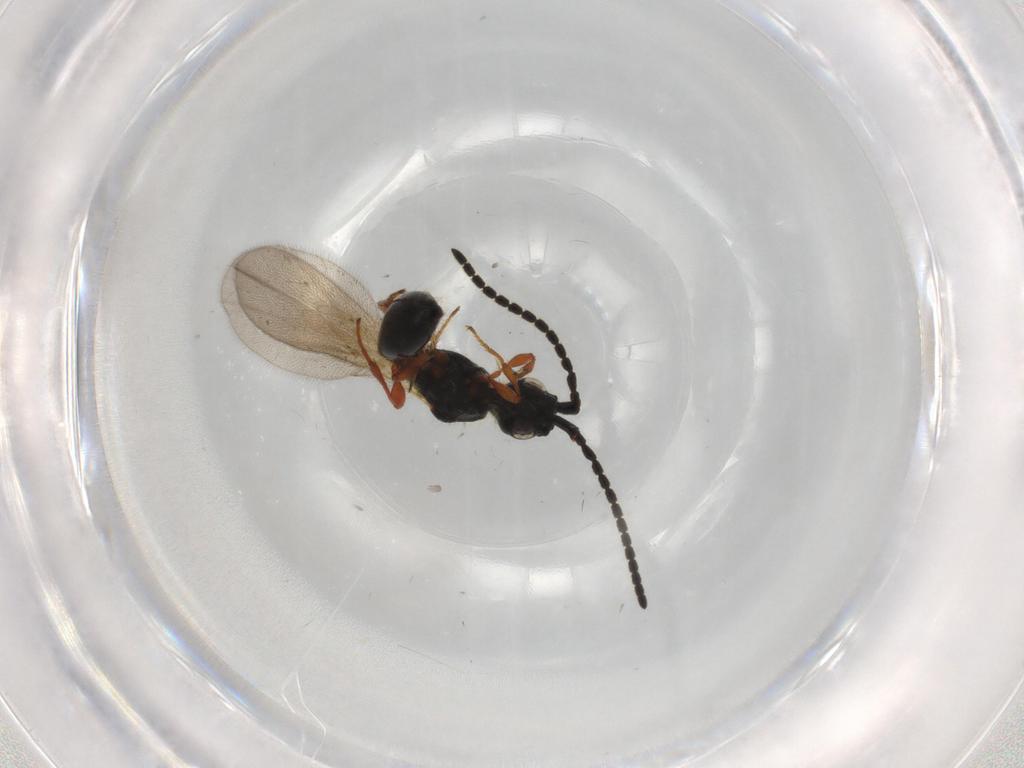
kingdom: Animalia
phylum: Arthropoda
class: Insecta
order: Hymenoptera
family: Diapriidae
